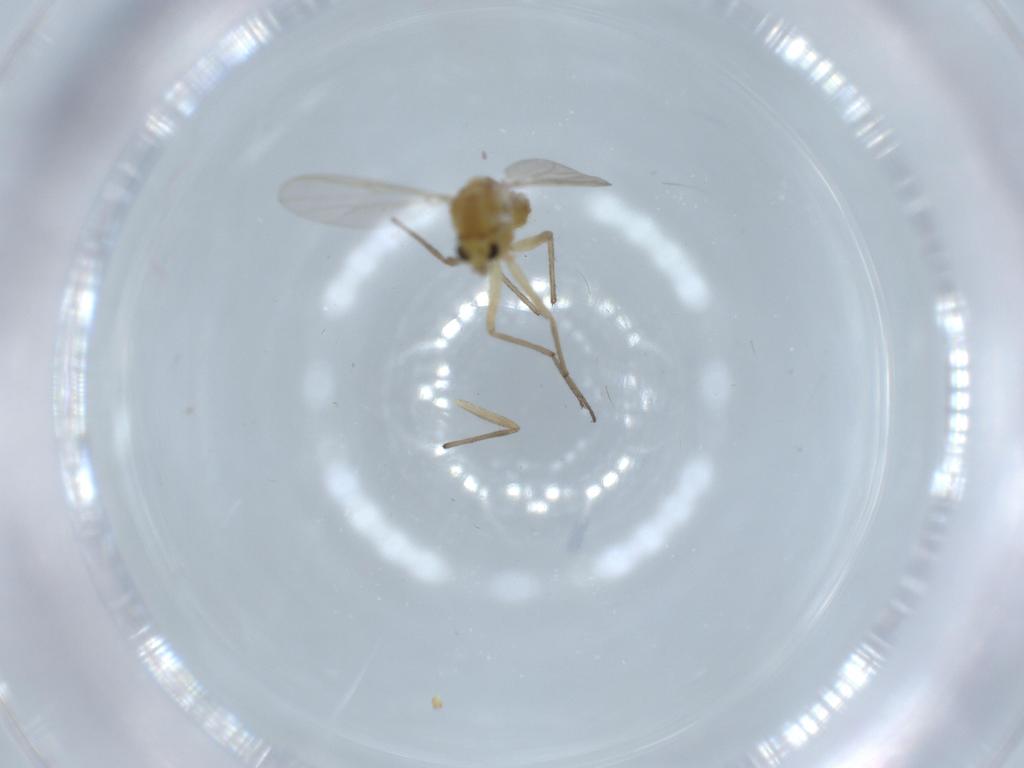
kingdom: Animalia
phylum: Arthropoda
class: Insecta
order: Diptera
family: Chironomidae
